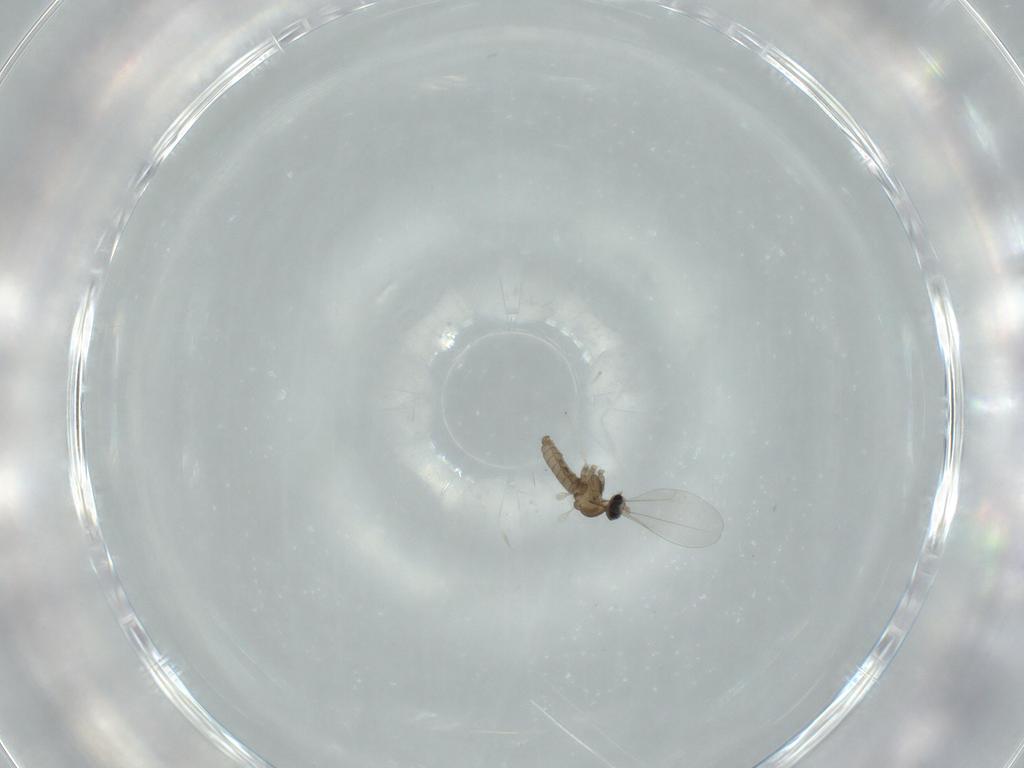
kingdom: Animalia
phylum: Arthropoda
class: Insecta
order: Diptera
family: Cecidomyiidae
